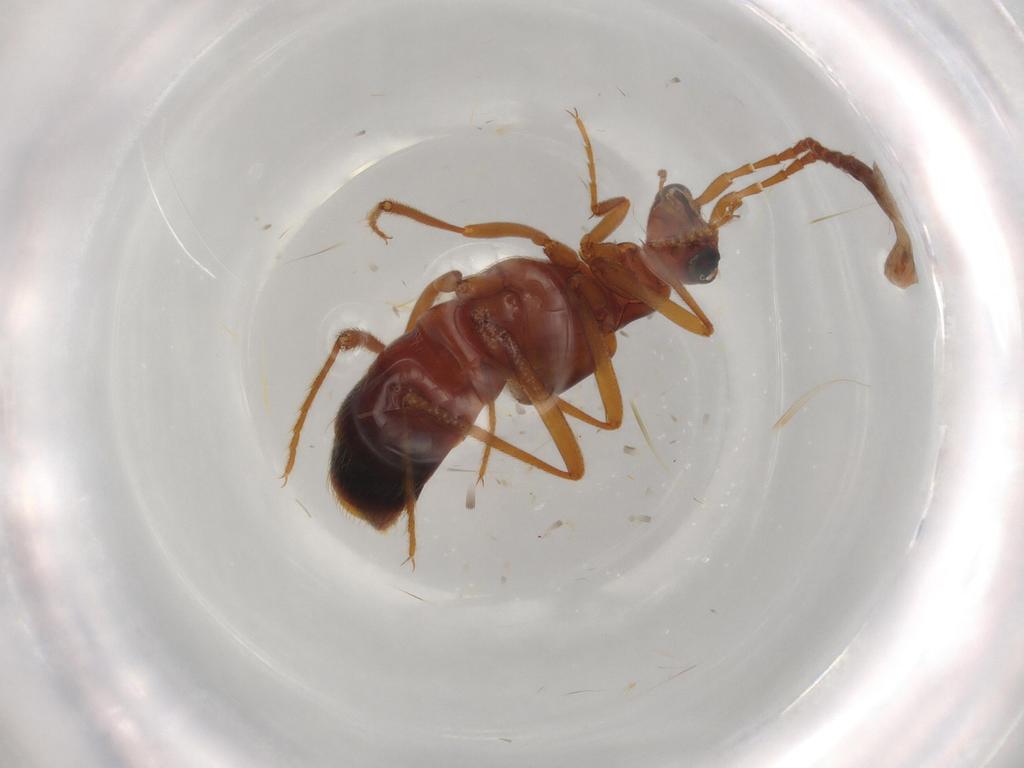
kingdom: Animalia
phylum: Arthropoda
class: Insecta
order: Coleoptera
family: Staphylinidae
